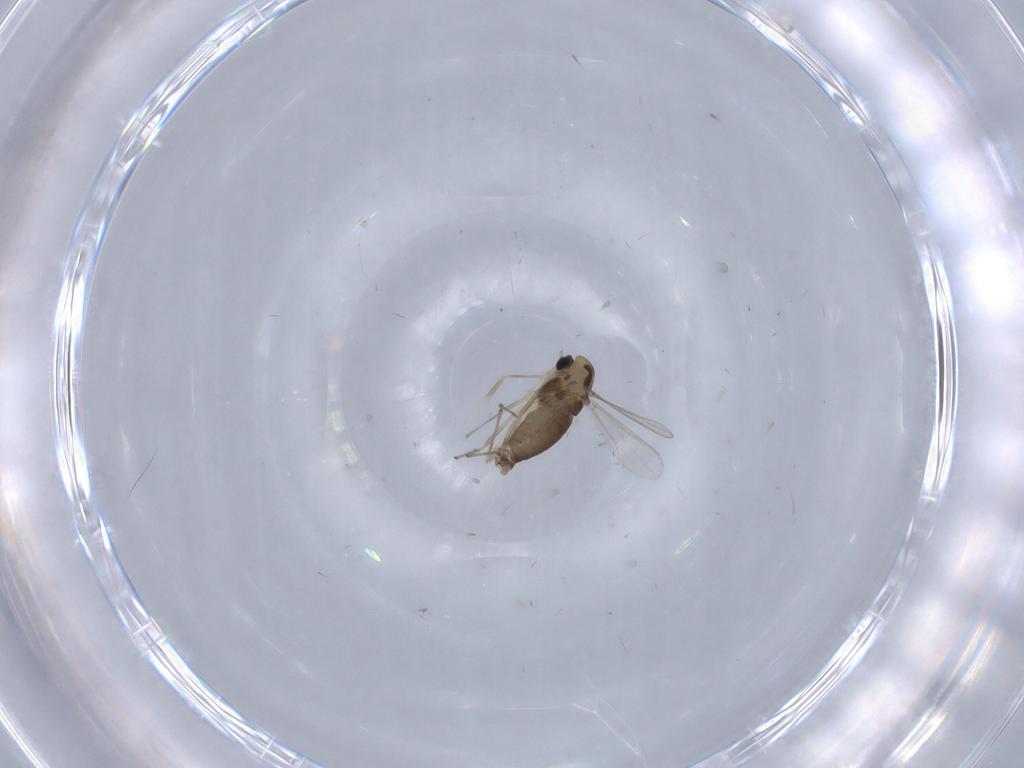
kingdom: Animalia
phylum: Arthropoda
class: Insecta
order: Diptera
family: Chironomidae
